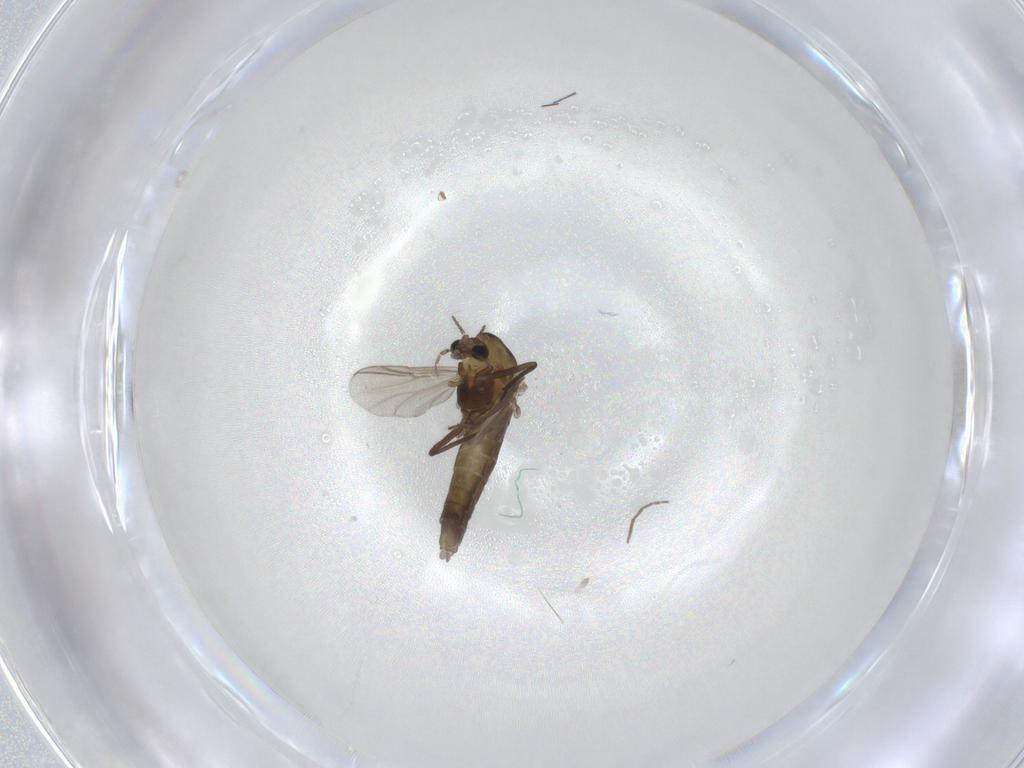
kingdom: Animalia
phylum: Arthropoda
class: Insecta
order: Diptera
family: Chironomidae
